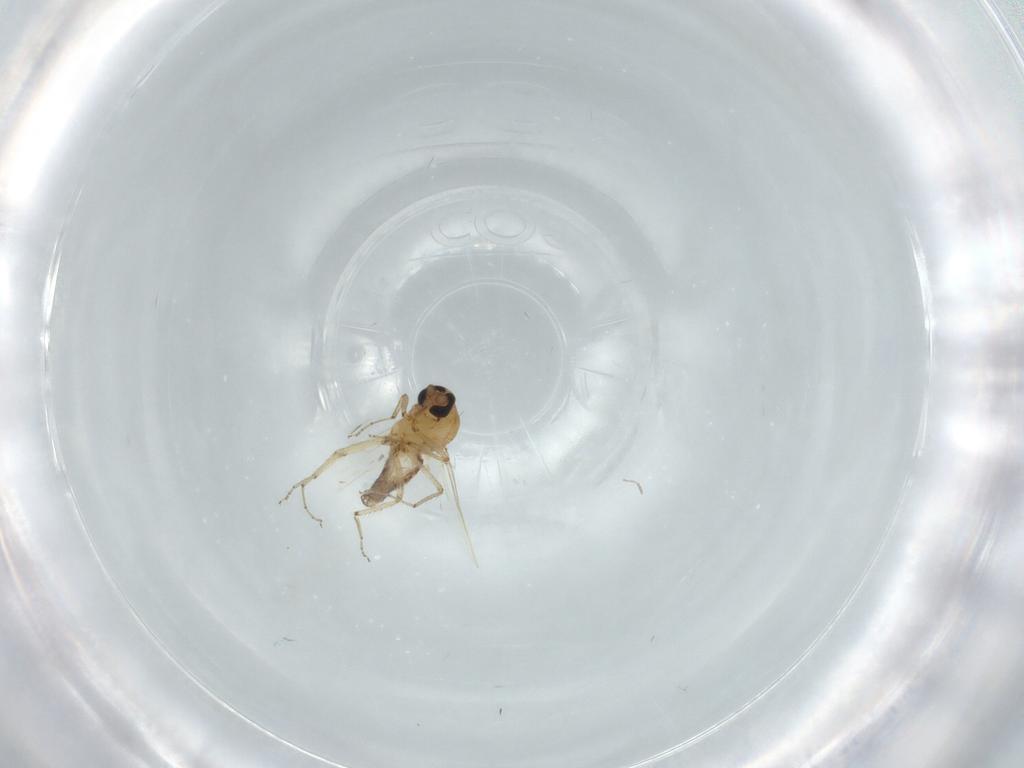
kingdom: Animalia
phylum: Arthropoda
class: Insecta
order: Diptera
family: Ceratopogonidae
